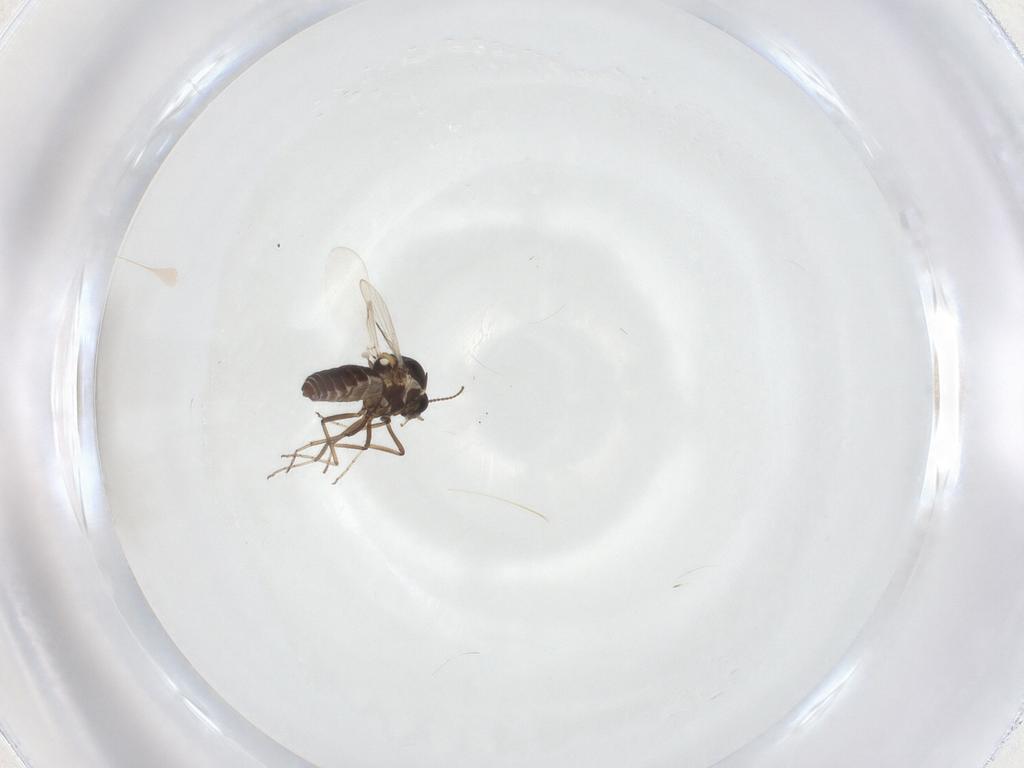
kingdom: Animalia
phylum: Arthropoda
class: Insecta
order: Diptera
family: Ceratopogonidae
